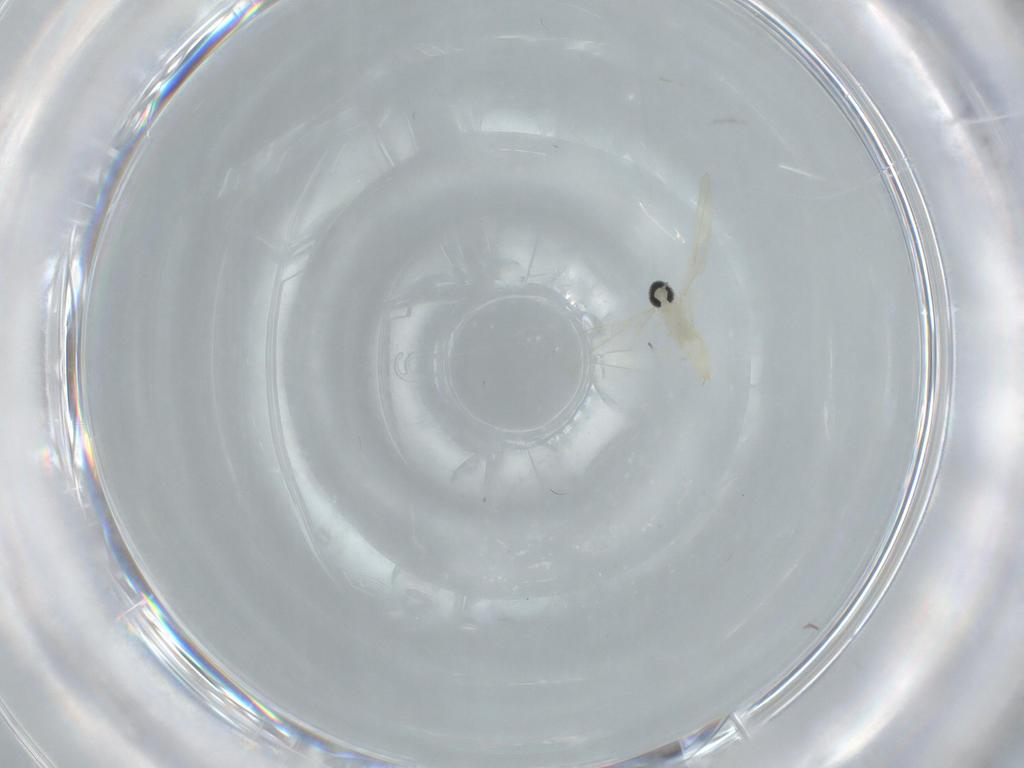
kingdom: Animalia
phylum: Arthropoda
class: Insecta
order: Diptera
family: Cecidomyiidae
